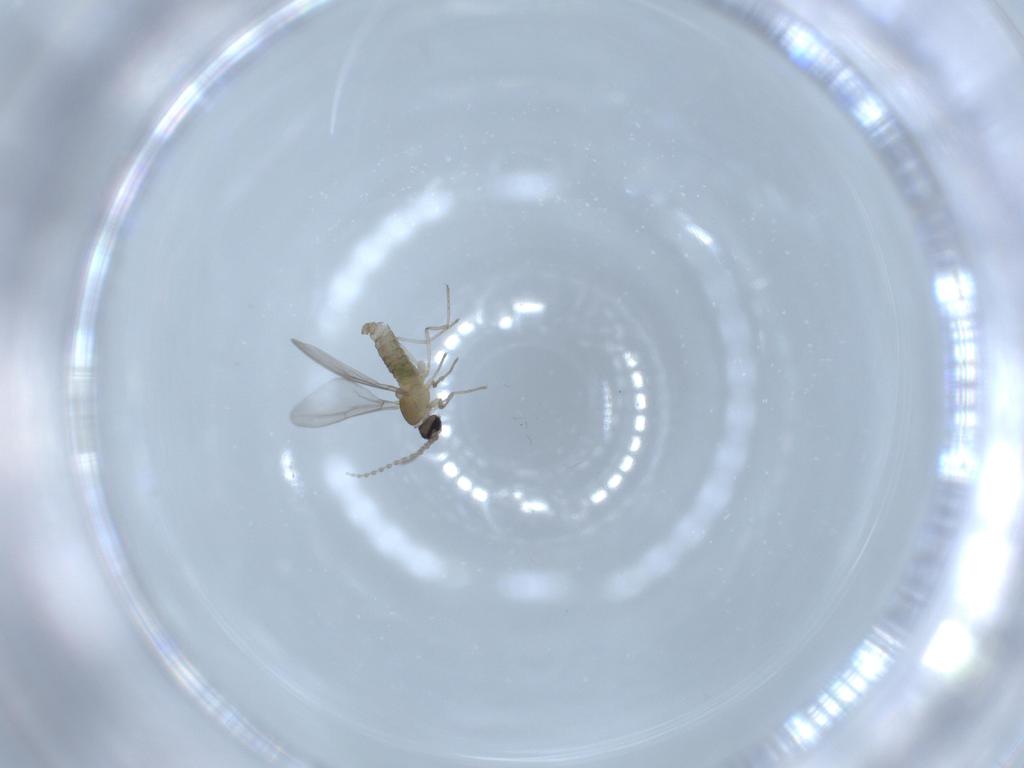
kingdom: Animalia
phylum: Arthropoda
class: Insecta
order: Diptera
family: Cecidomyiidae
